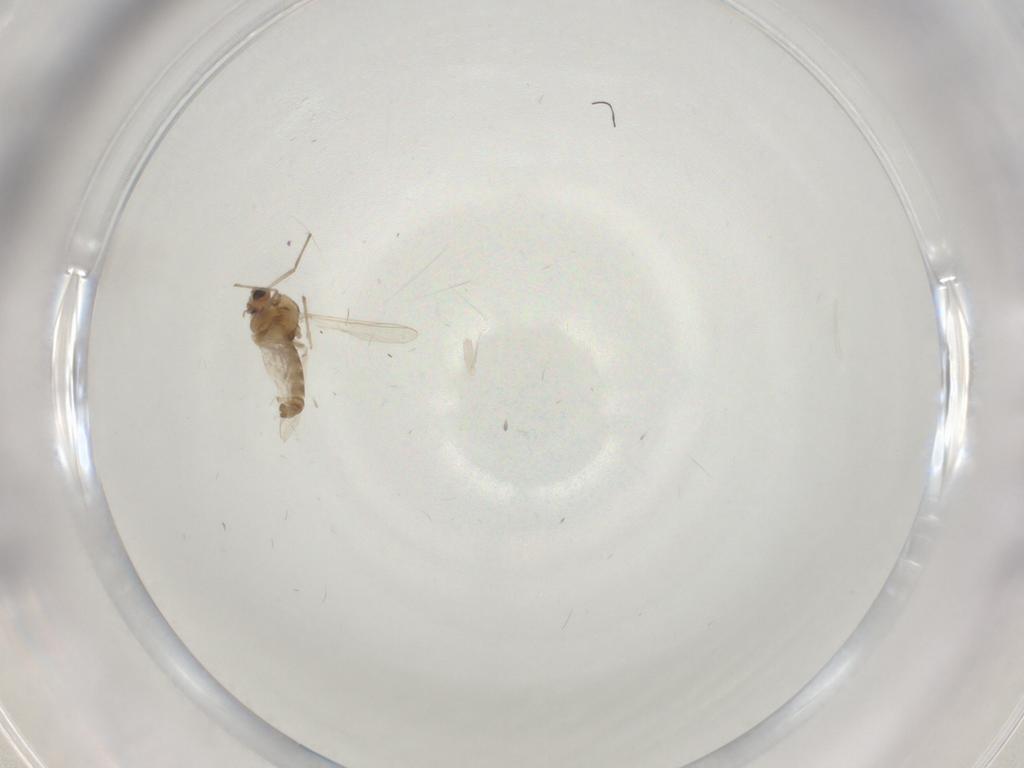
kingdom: Animalia
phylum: Arthropoda
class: Insecta
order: Diptera
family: Chironomidae
